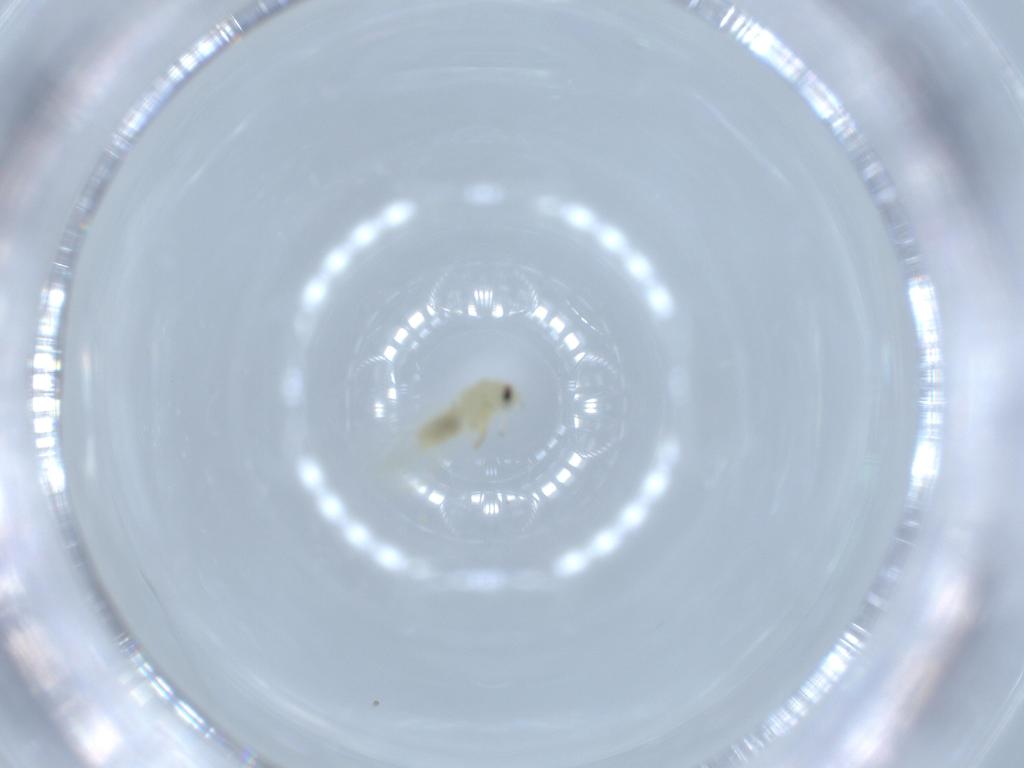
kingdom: Animalia
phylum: Arthropoda
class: Insecta
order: Hemiptera
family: Aleyrodidae
